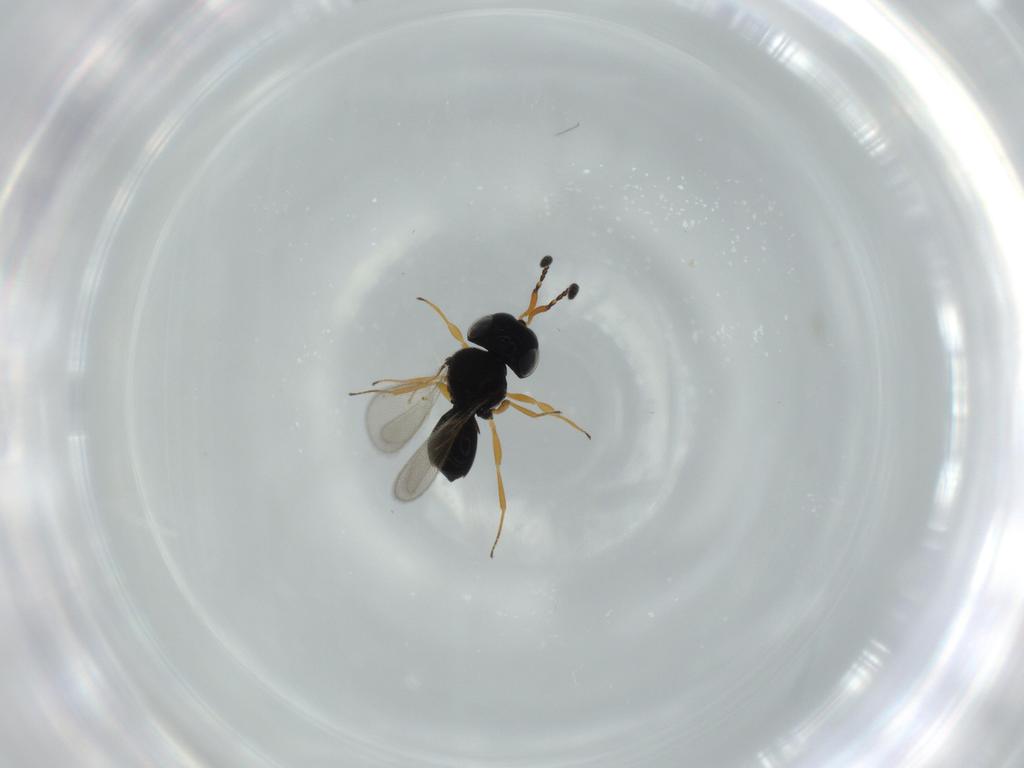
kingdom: Animalia
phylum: Arthropoda
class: Insecta
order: Hymenoptera
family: Scelionidae
